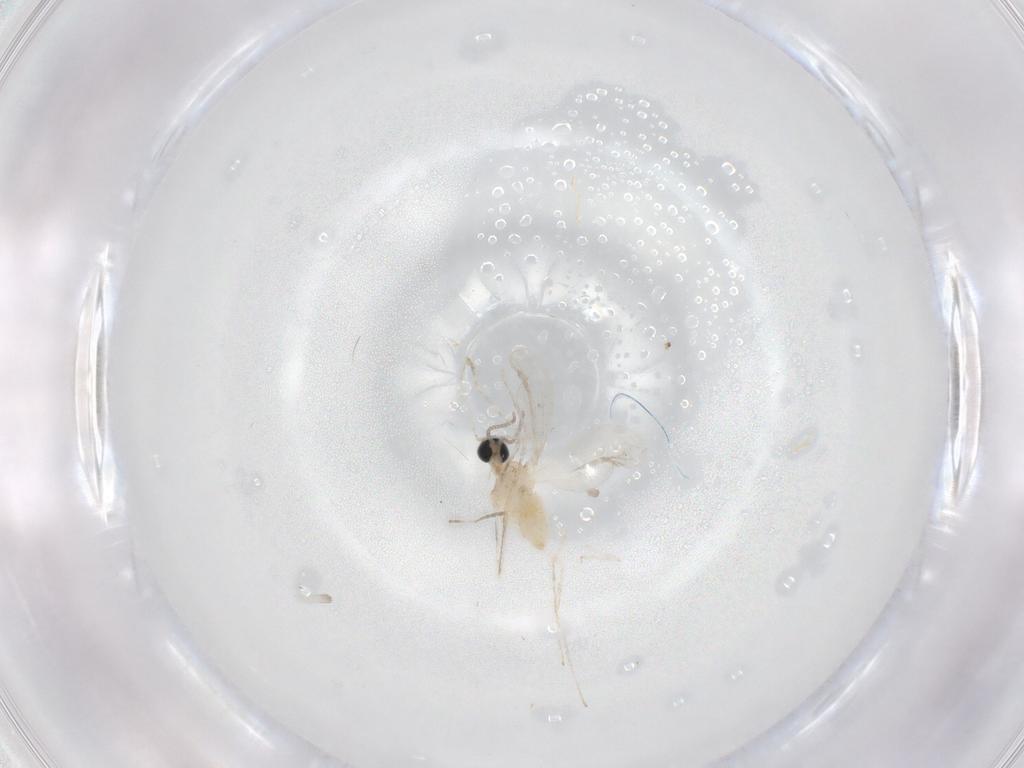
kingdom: Animalia
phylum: Arthropoda
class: Insecta
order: Diptera
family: Cecidomyiidae
